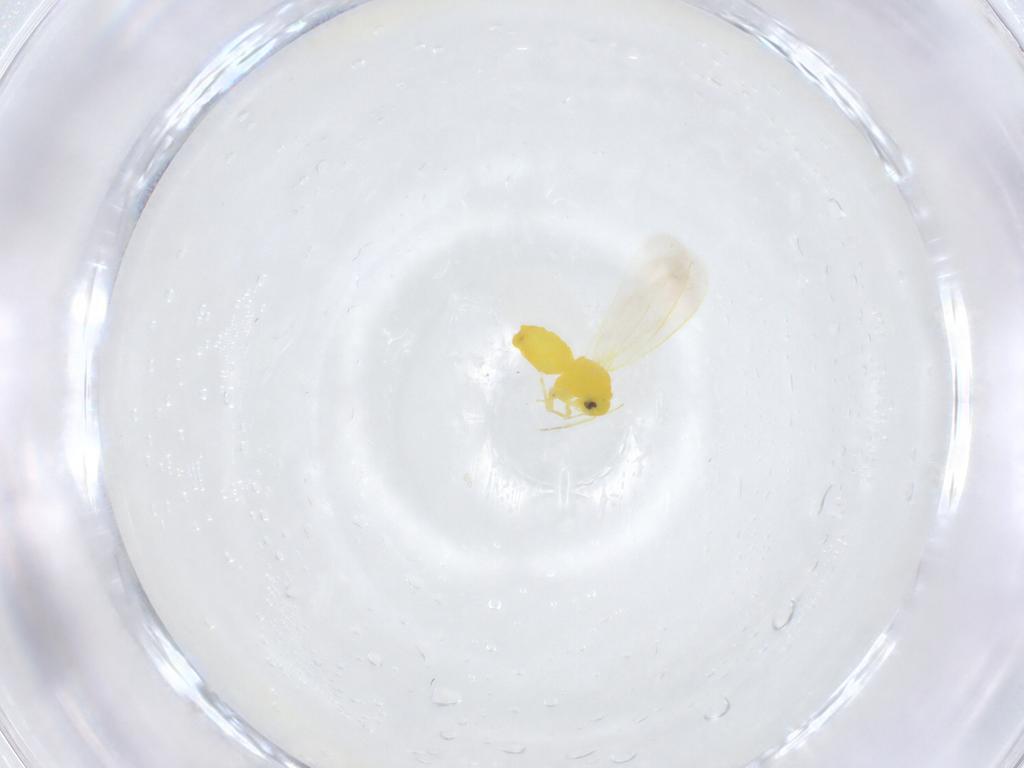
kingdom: Animalia
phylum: Arthropoda
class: Insecta
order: Hemiptera
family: Aleyrodidae
